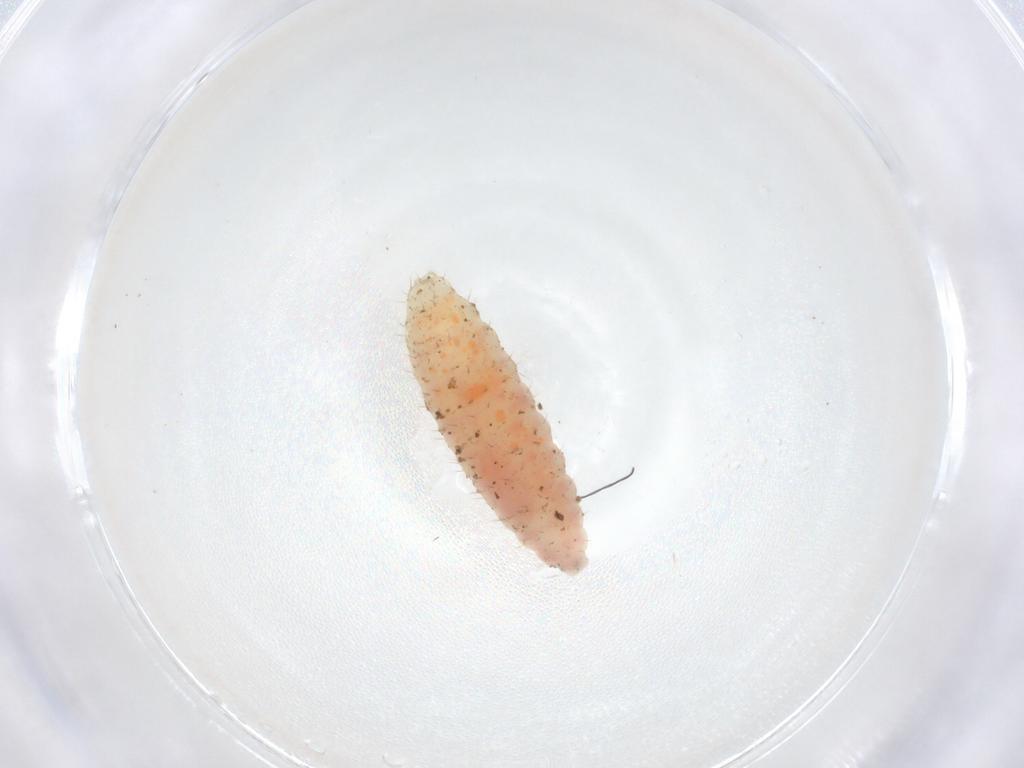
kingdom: Animalia
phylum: Arthropoda
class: Insecta
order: Diptera
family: Cecidomyiidae
